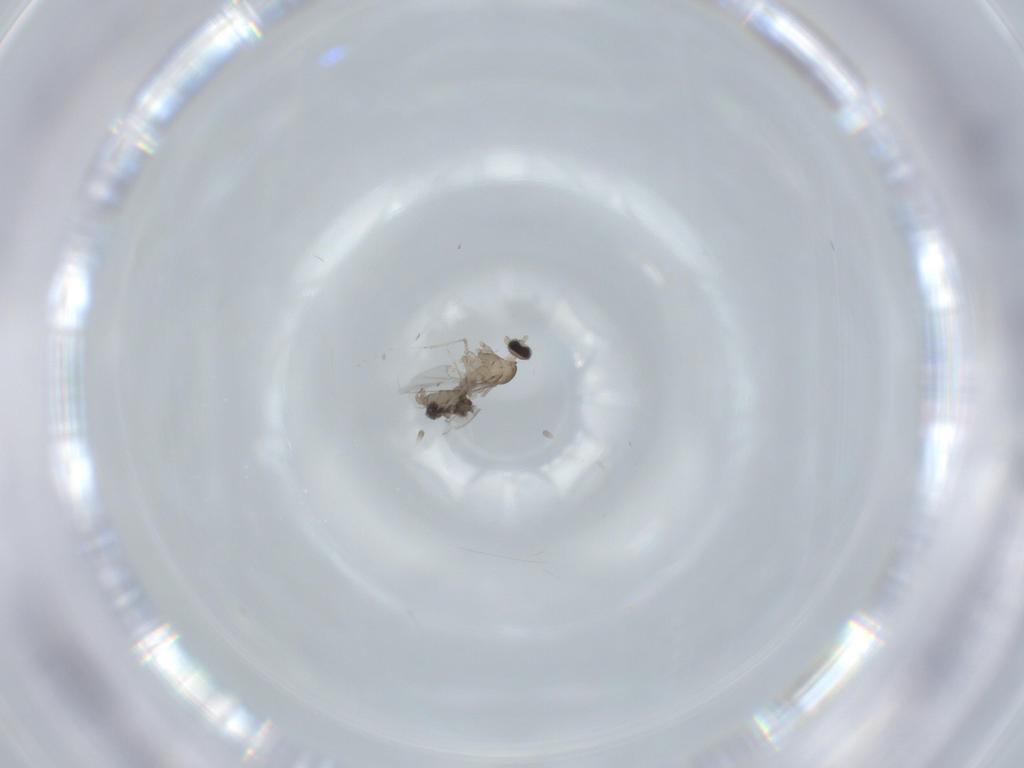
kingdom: Animalia
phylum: Arthropoda
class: Insecta
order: Diptera
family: Cecidomyiidae
